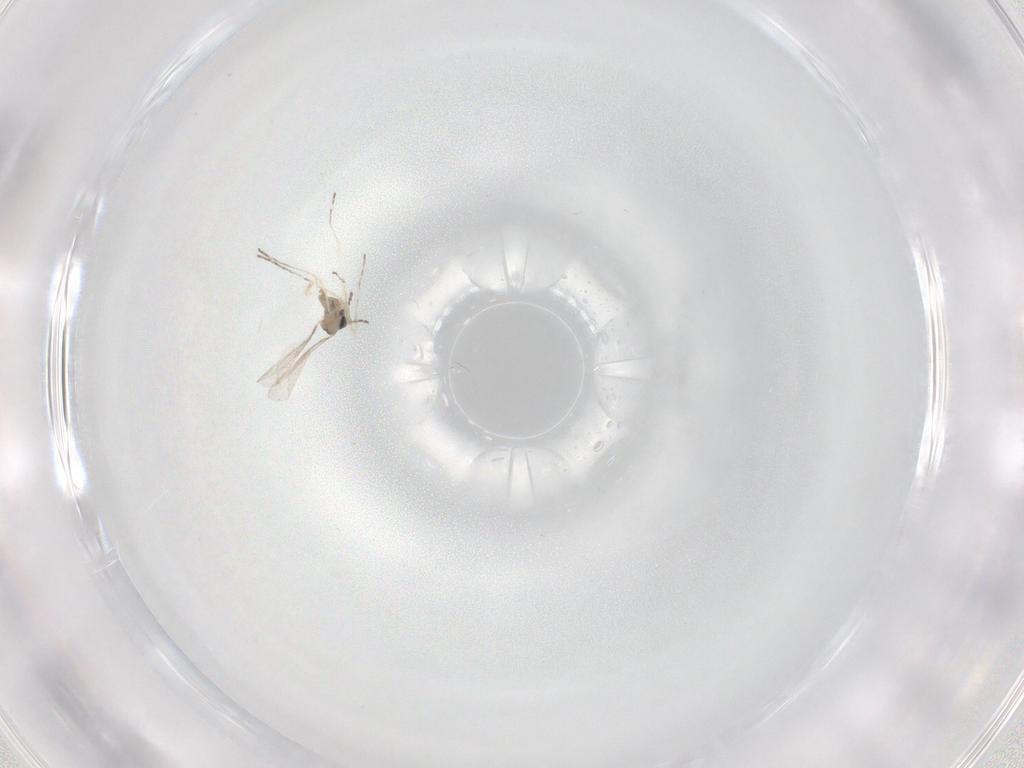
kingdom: Animalia
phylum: Arthropoda
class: Insecta
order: Diptera
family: Cecidomyiidae
